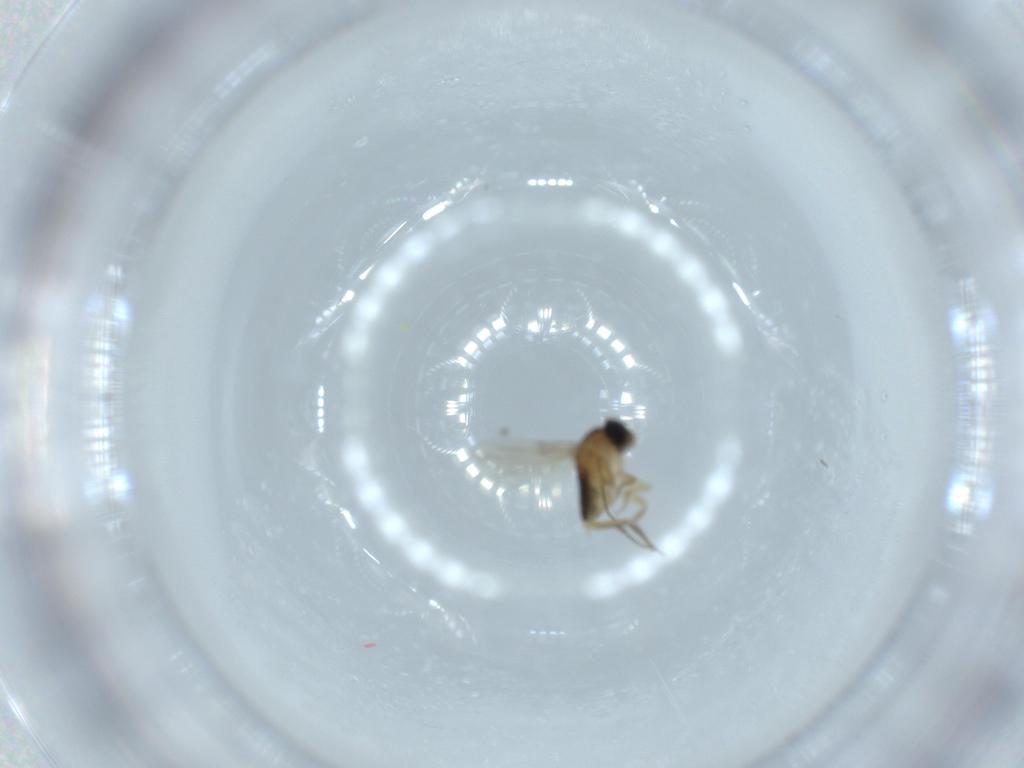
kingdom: Animalia
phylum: Arthropoda
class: Insecta
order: Diptera
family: Phoridae
